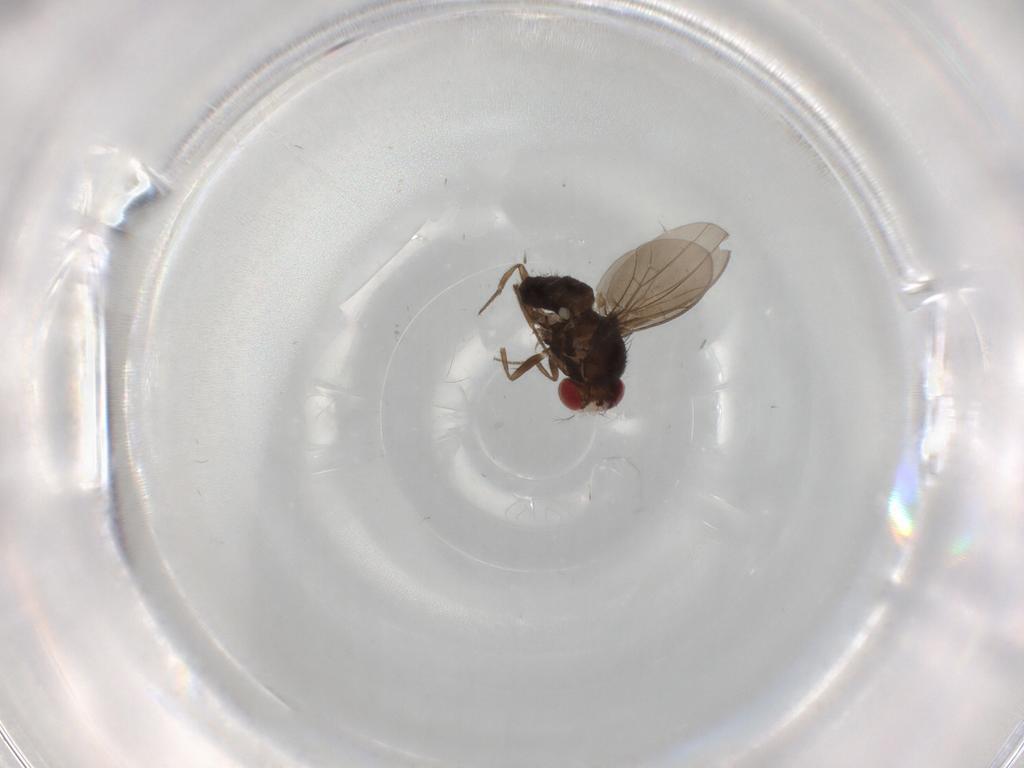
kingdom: Animalia
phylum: Arthropoda
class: Insecta
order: Diptera
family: Drosophilidae
